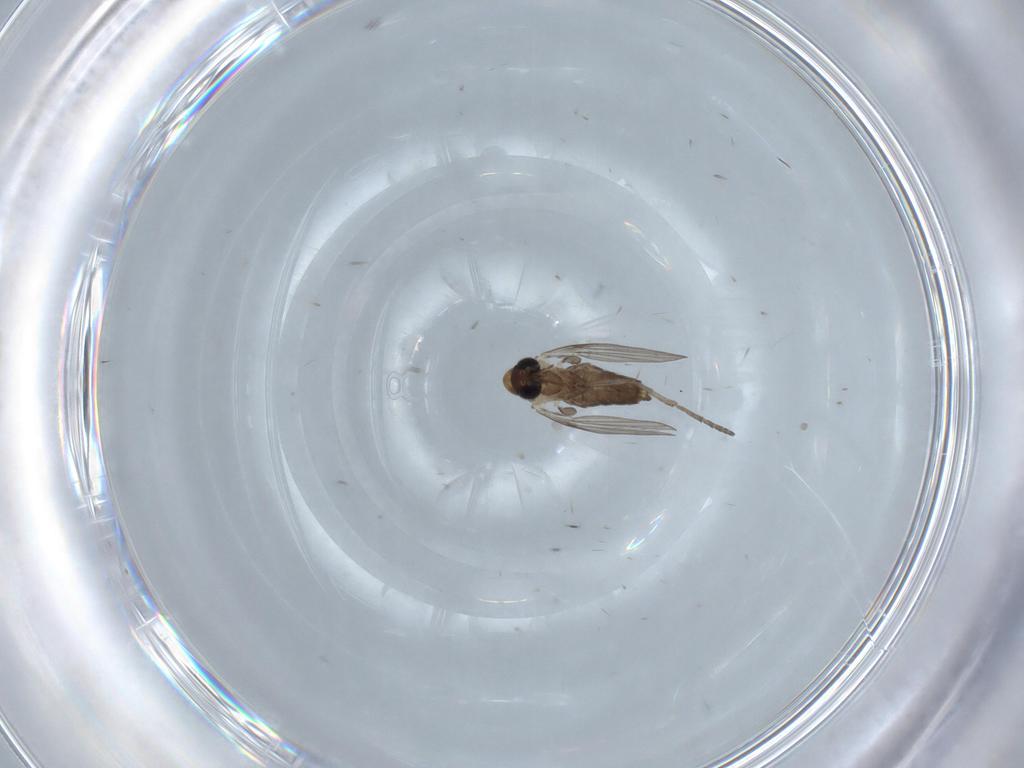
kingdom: Animalia
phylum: Arthropoda
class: Insecta
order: Diptera
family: Psychodidae
